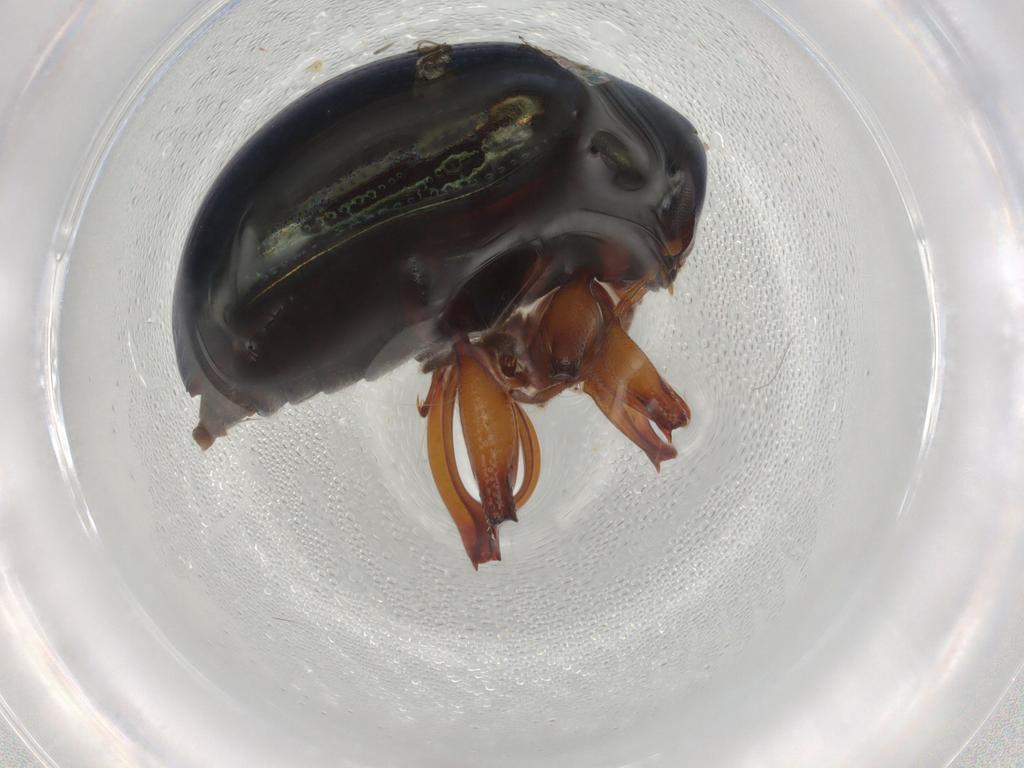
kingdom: Animalia
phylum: Arthropoda
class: Insecta
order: Coleoptera
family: Chrysomelidae
